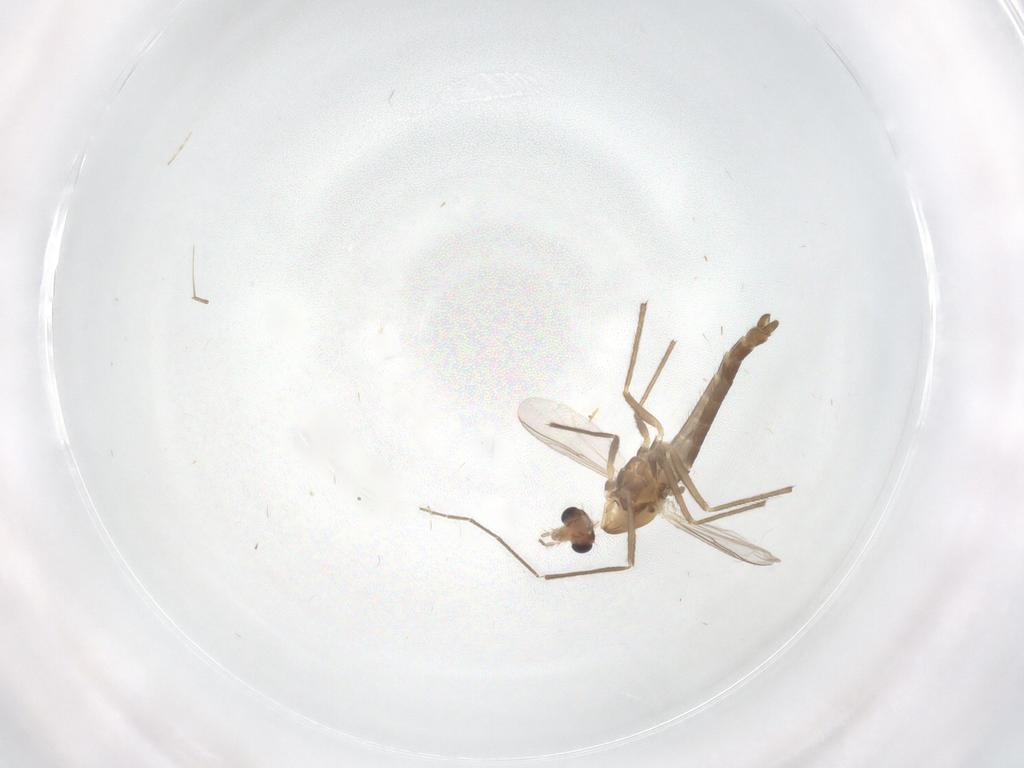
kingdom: Animalia
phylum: Arthropoda
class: Insecta
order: Diptera
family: Chironomidae
